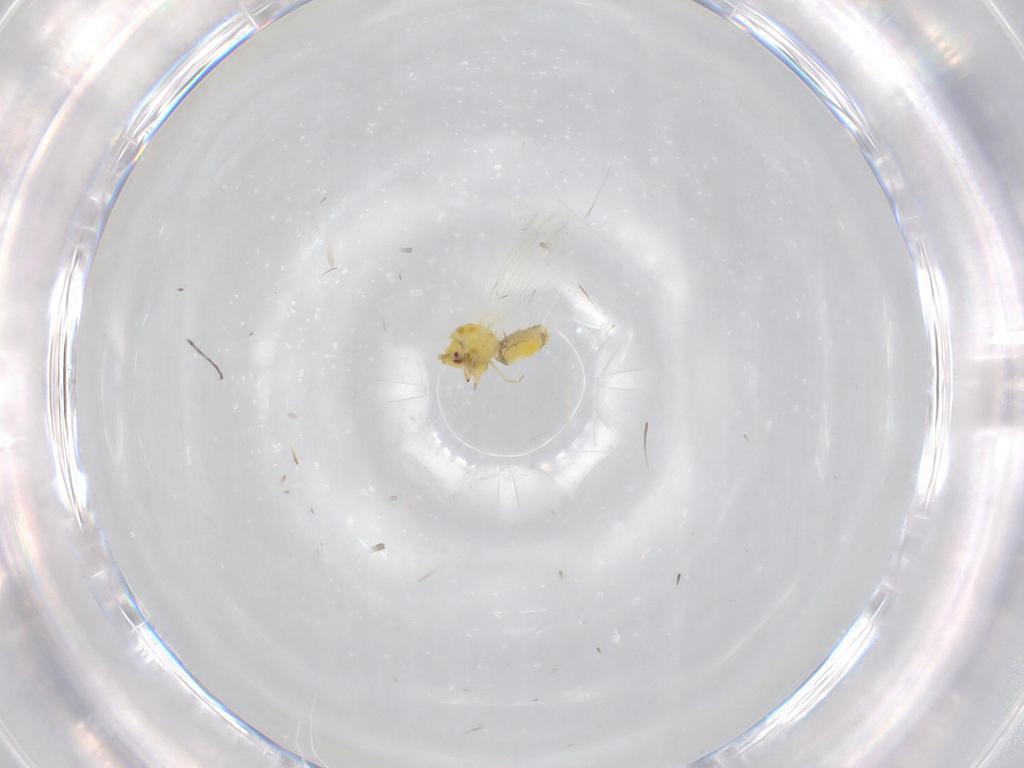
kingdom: Animalia
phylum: Arthropoda
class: Insecta
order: Hemiptera
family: Aleyrodidae
